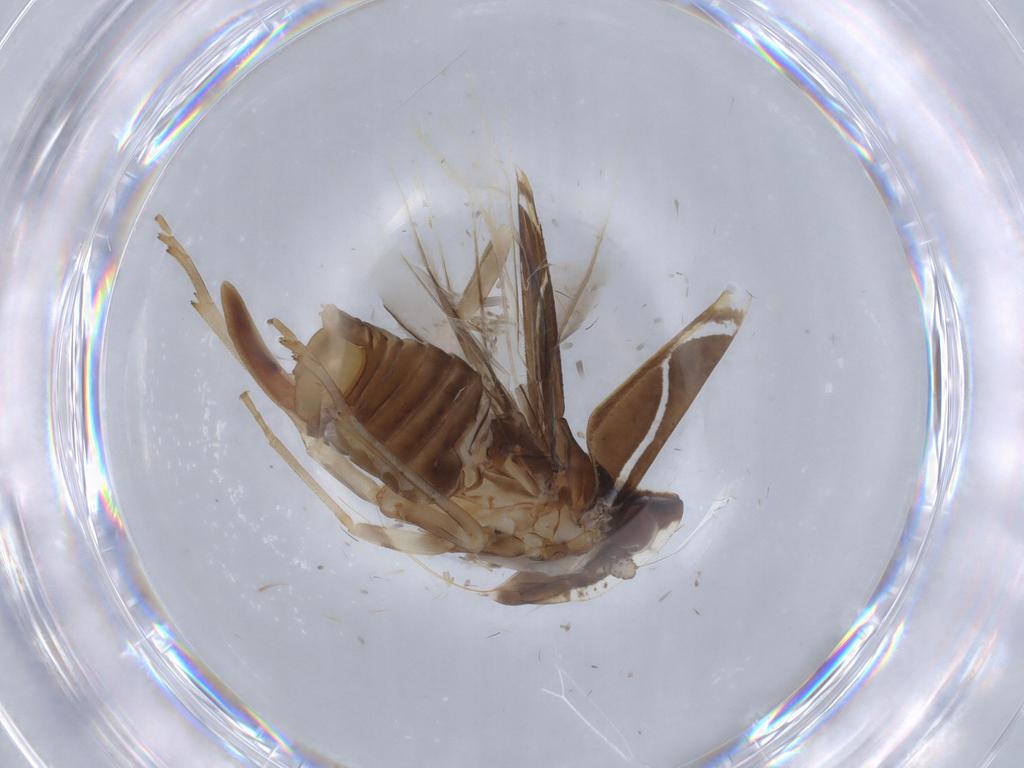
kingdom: Animalia
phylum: Arthropoda
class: Insecta
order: Hemiptera
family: Cixiidae
